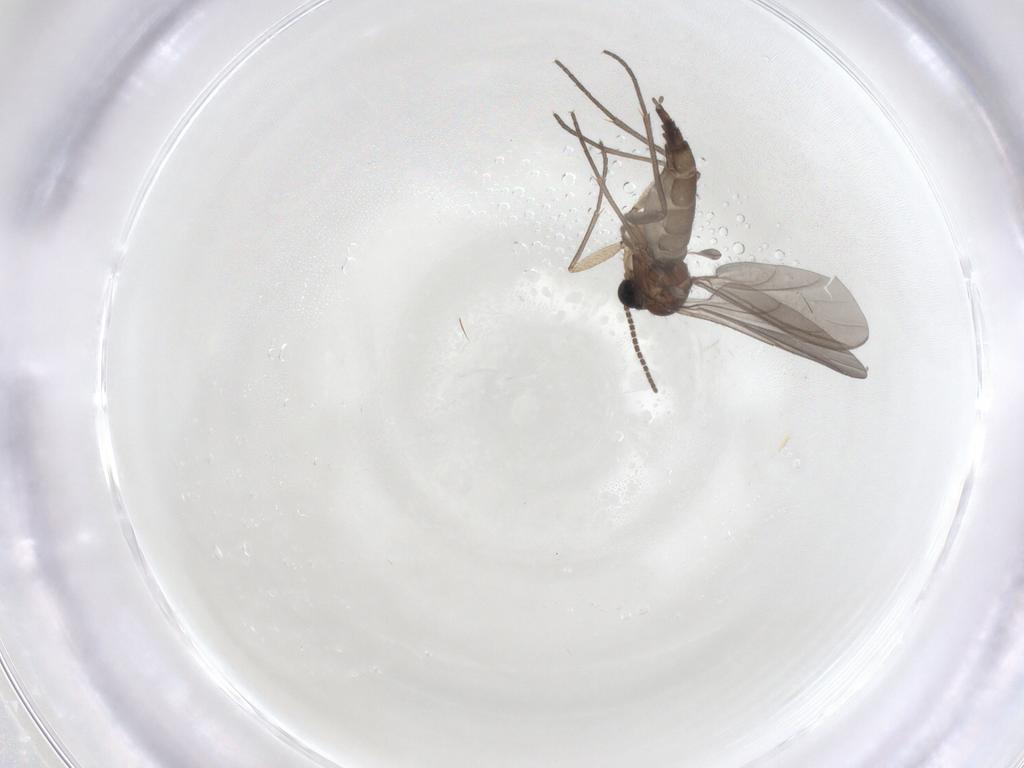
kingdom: Animalia
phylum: Arthropoda
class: Insecta
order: Diptera
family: Sciaridae
